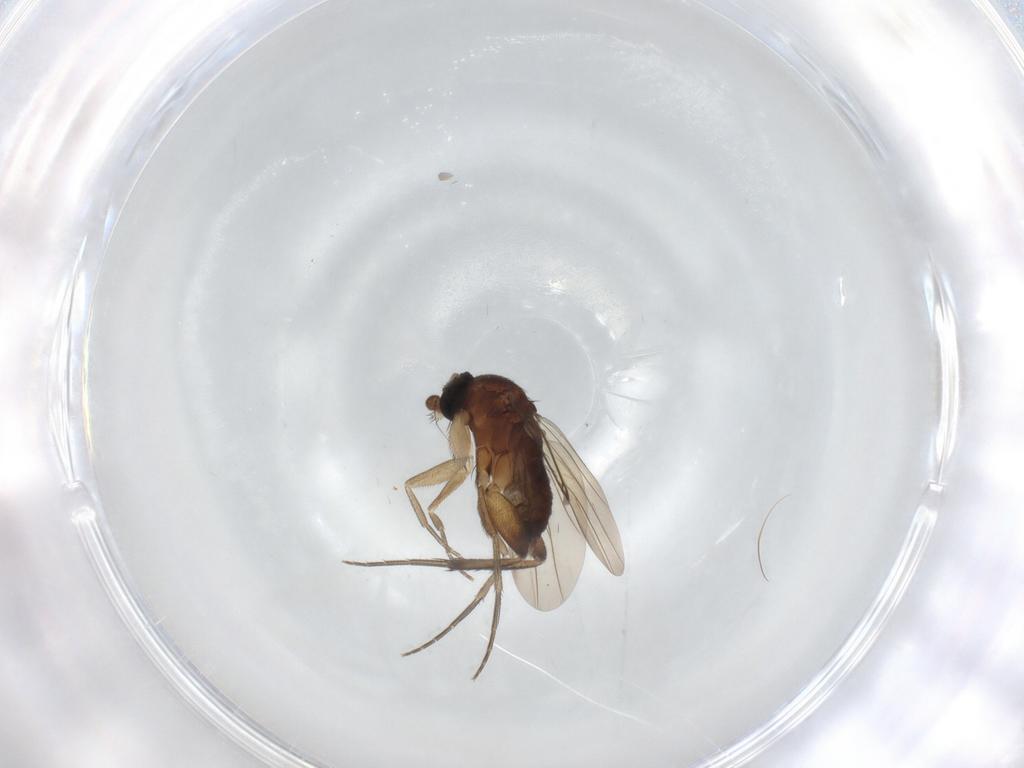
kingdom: Animalia
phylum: Arthropoda
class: Insecta
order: Diptera
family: Phoridae
